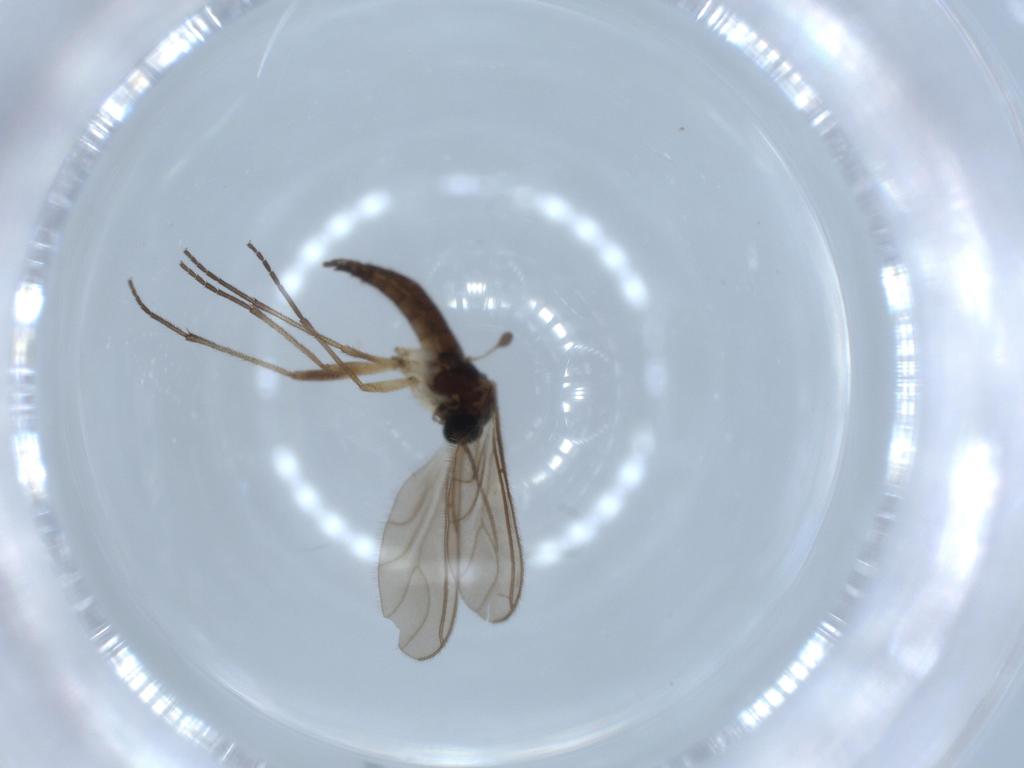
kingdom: Animalia
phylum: Arthropoda
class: Insecta
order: Diptera
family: Sciaridae
